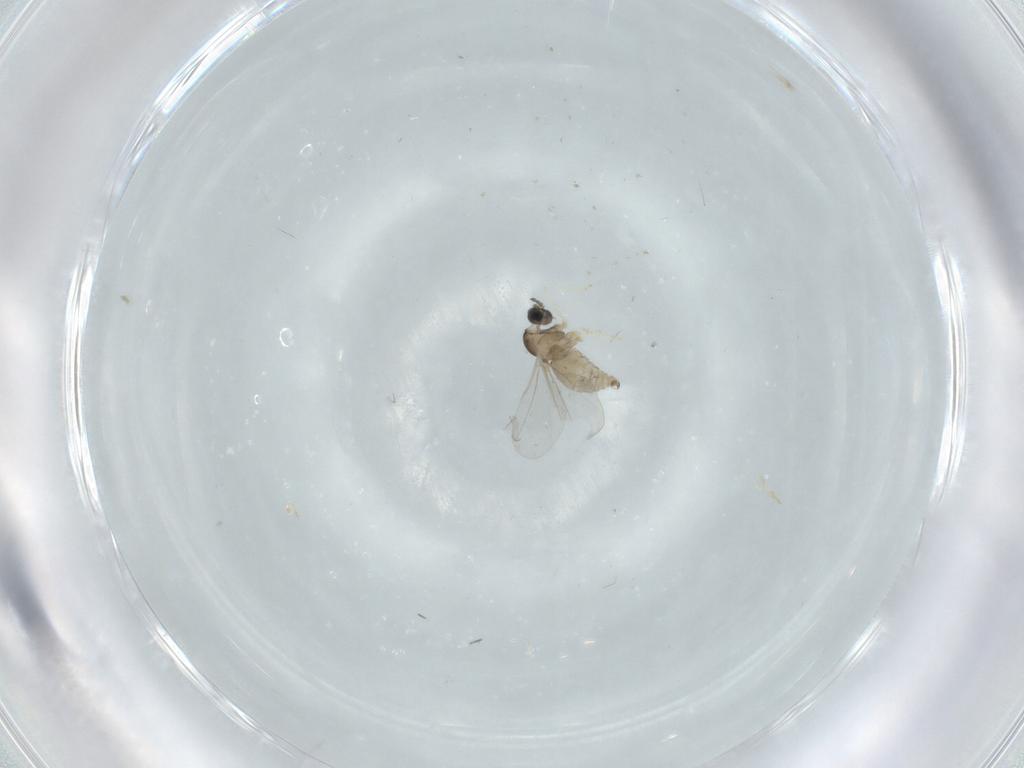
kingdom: Animalia
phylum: Arthropoda
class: Insecta
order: Diptera
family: Cecidomyiidae
